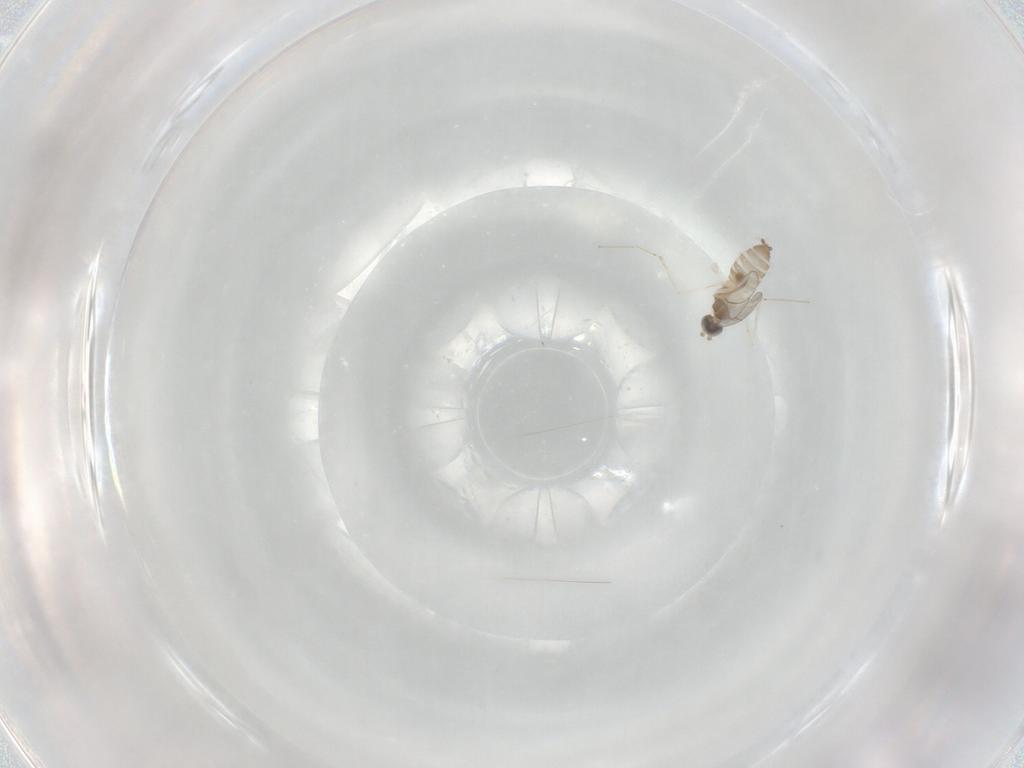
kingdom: Animalia
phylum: Arthropoda
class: Insecta
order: Diptera
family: Cecidomyiidae
